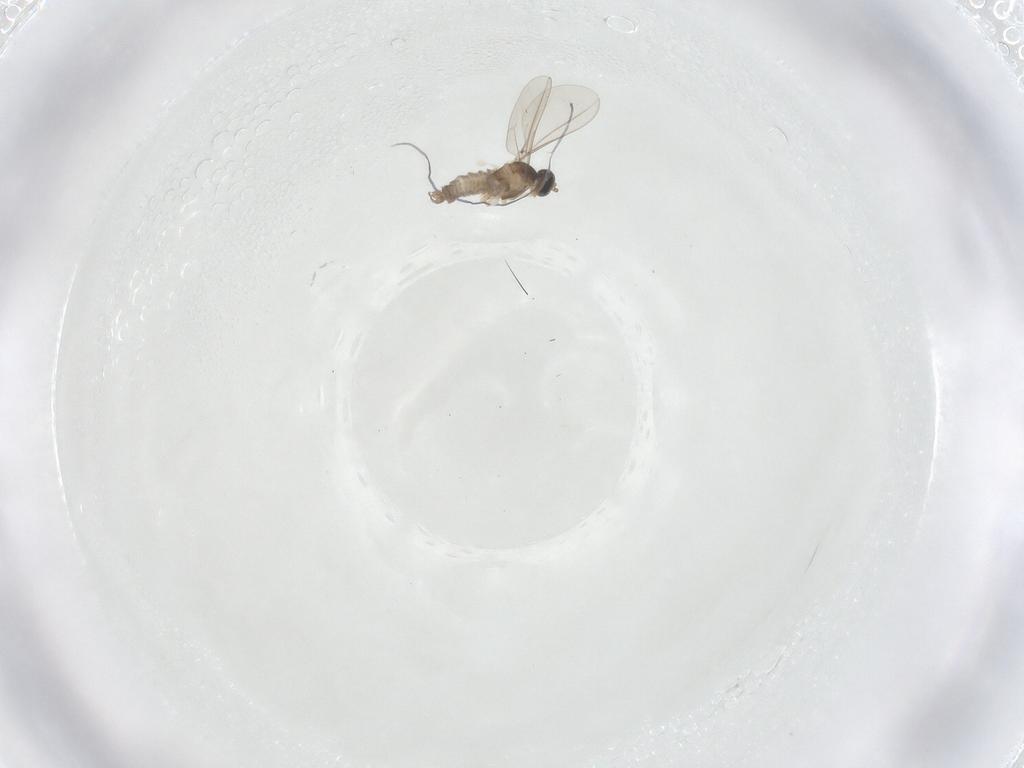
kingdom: Animalia
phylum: Arthropoda
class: Insecta
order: Diptera
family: Cecidomyiidae
